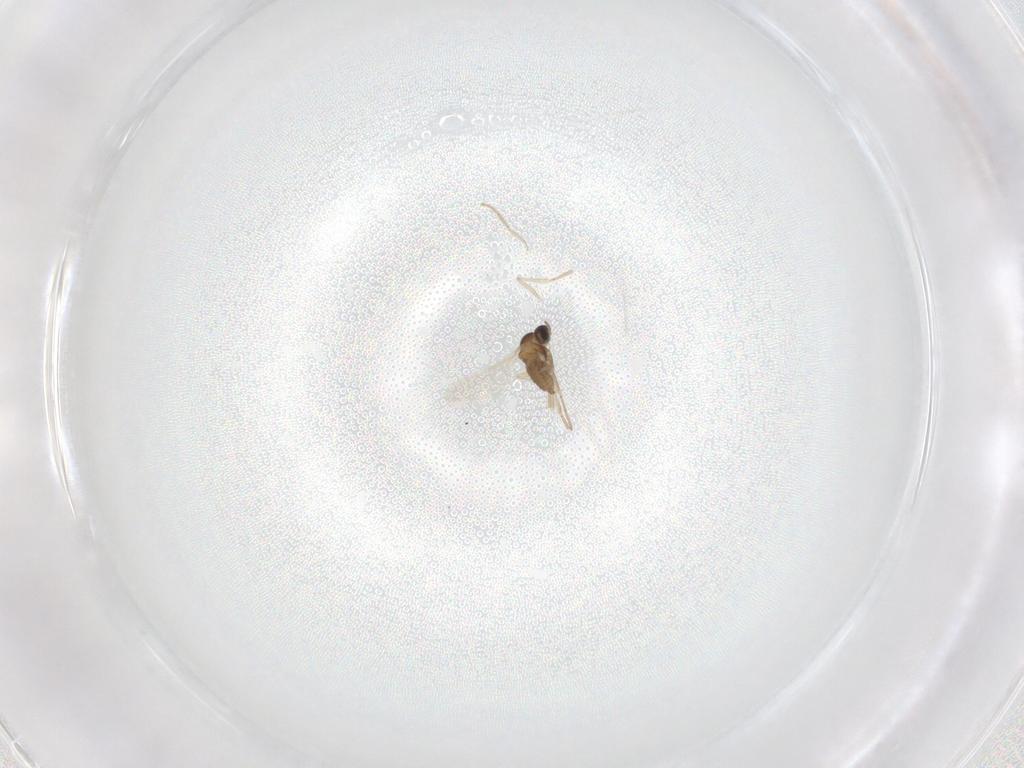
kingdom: Animalia
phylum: Arthropoda
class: Insecta
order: Diptera
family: Cecidomyiidae
